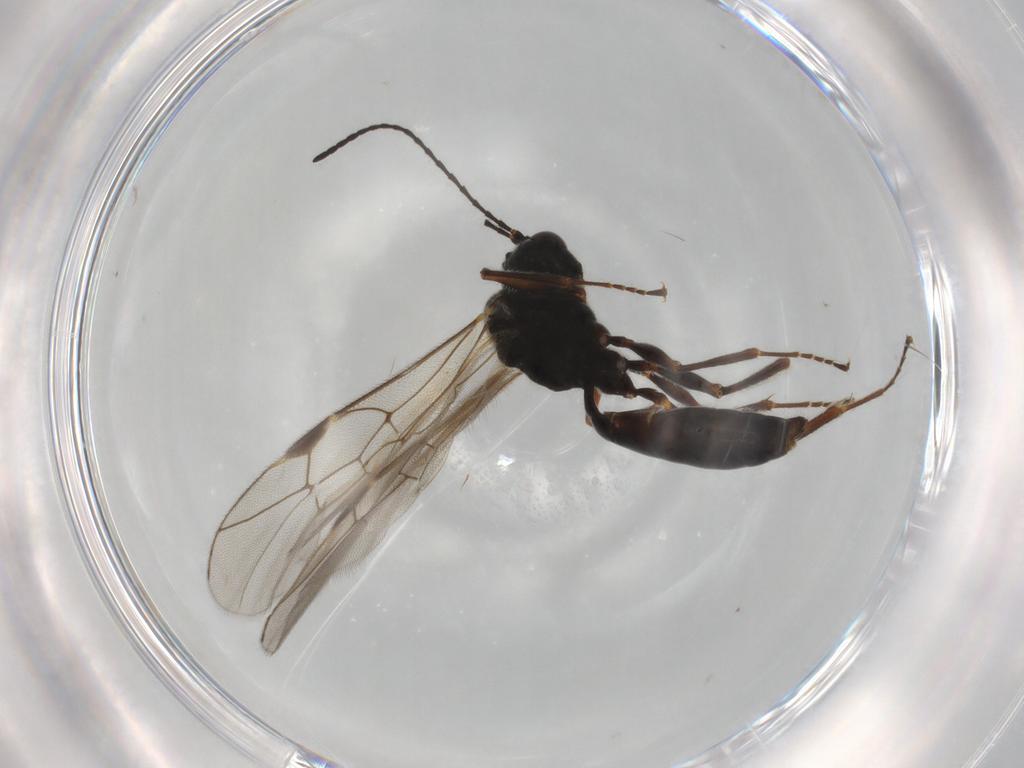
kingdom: Animalia
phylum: Arthropoda
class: Insecta
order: Hymenoptera
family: Ichneumonidae
